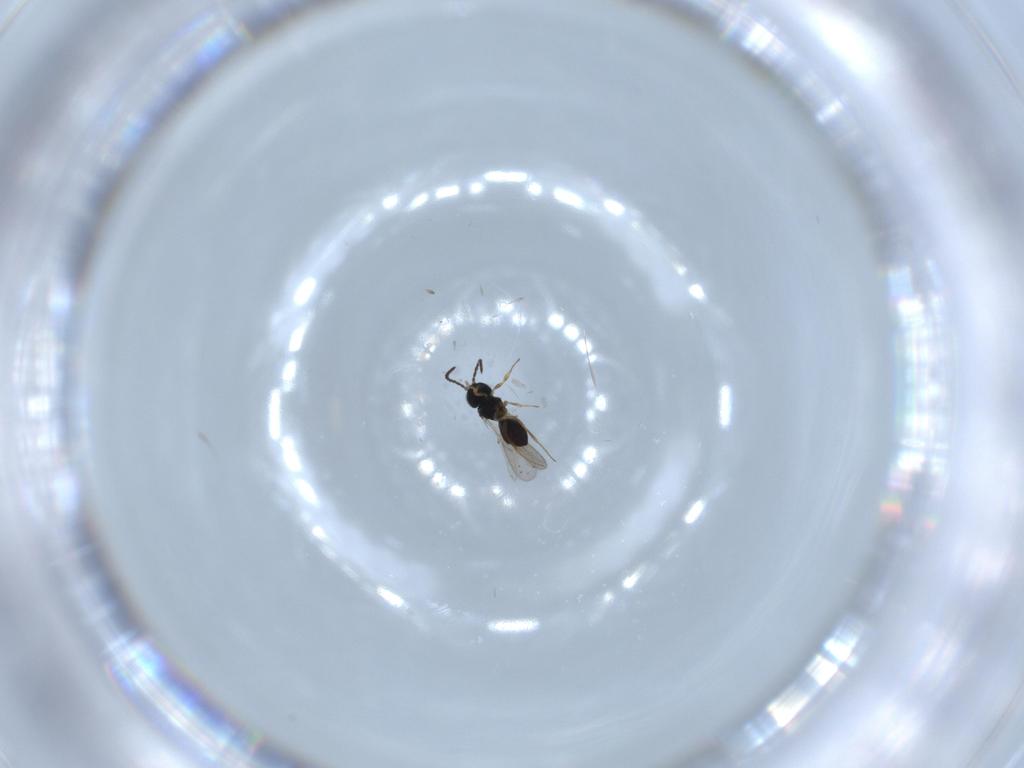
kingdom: Animalia
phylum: Arthropoda
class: Insecta
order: Hymenoptera
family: Scelionidae
